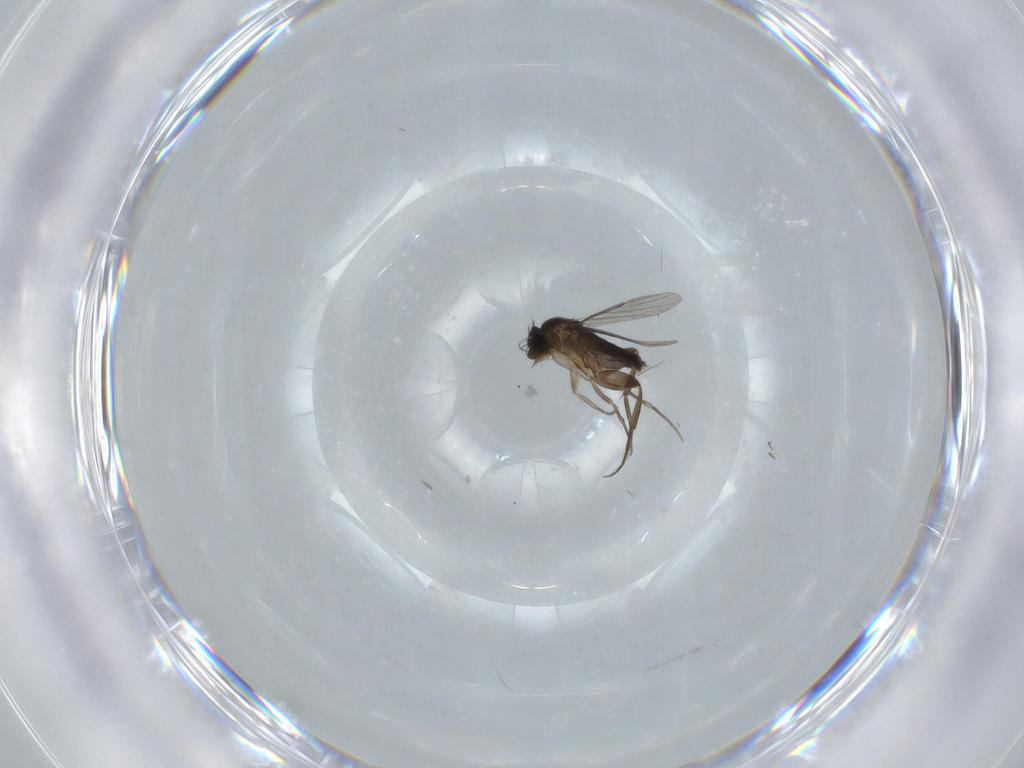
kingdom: Animalia
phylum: Arthropoda
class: Insecta
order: Diptera
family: Phoridae
